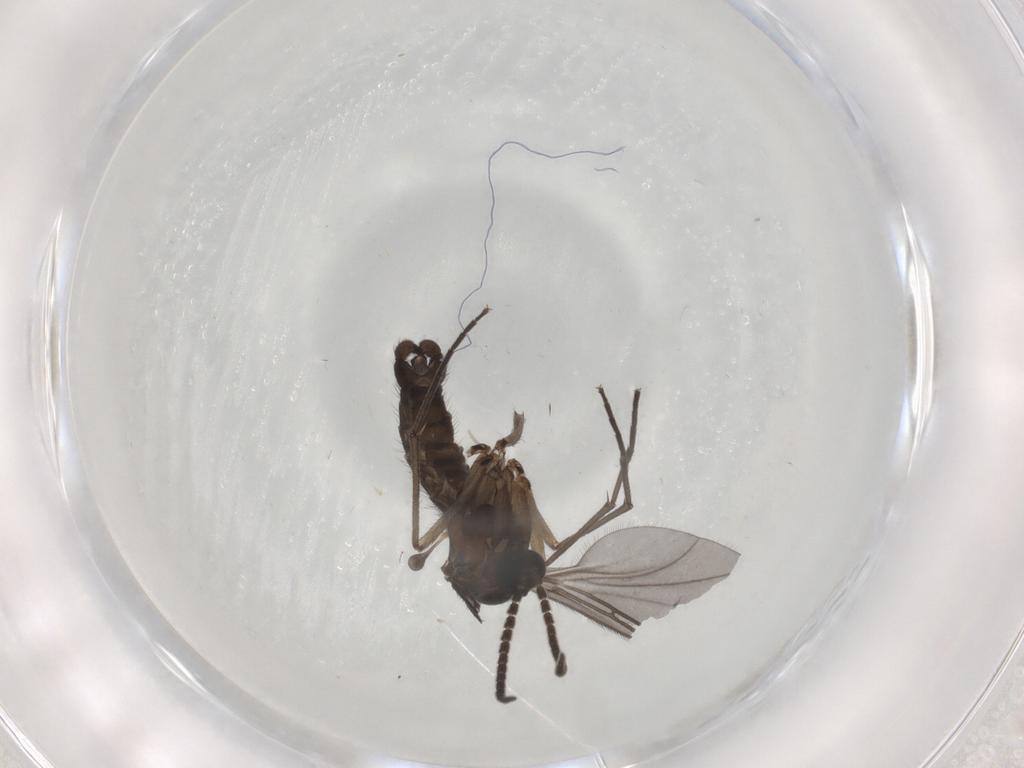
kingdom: Animalia
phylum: Arthropoda
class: Insecta
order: Diptera
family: Sciaridae
